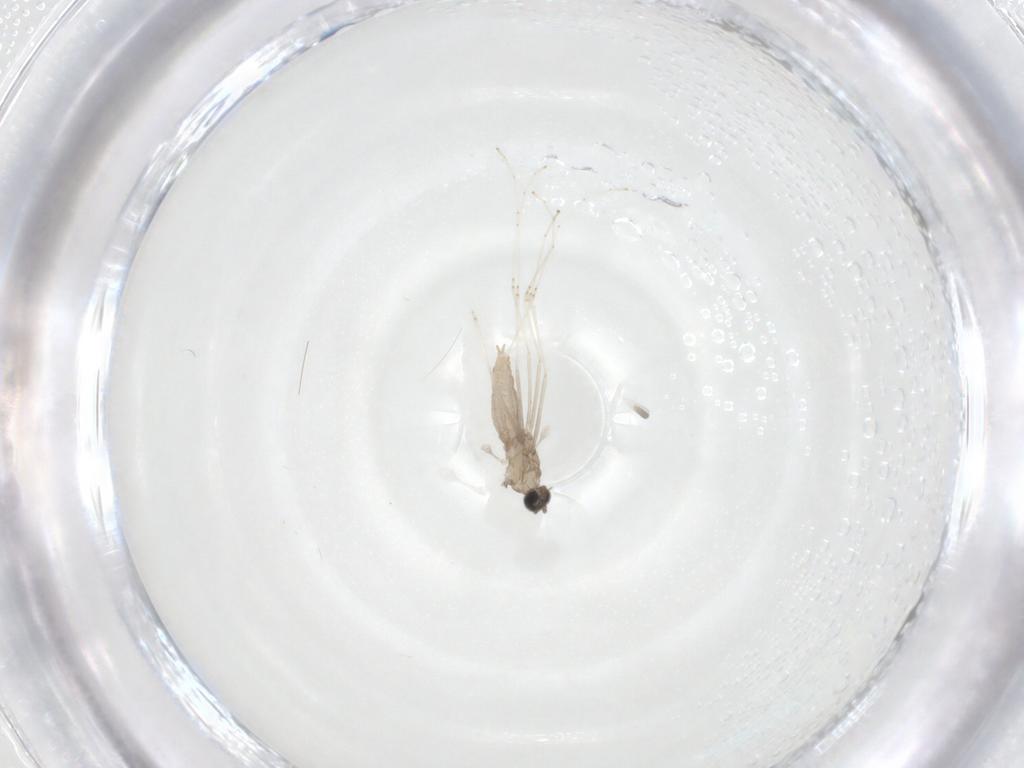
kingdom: Animalia
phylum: Arthropoda
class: Insecta
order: Diptera
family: Cecidomyiidae
